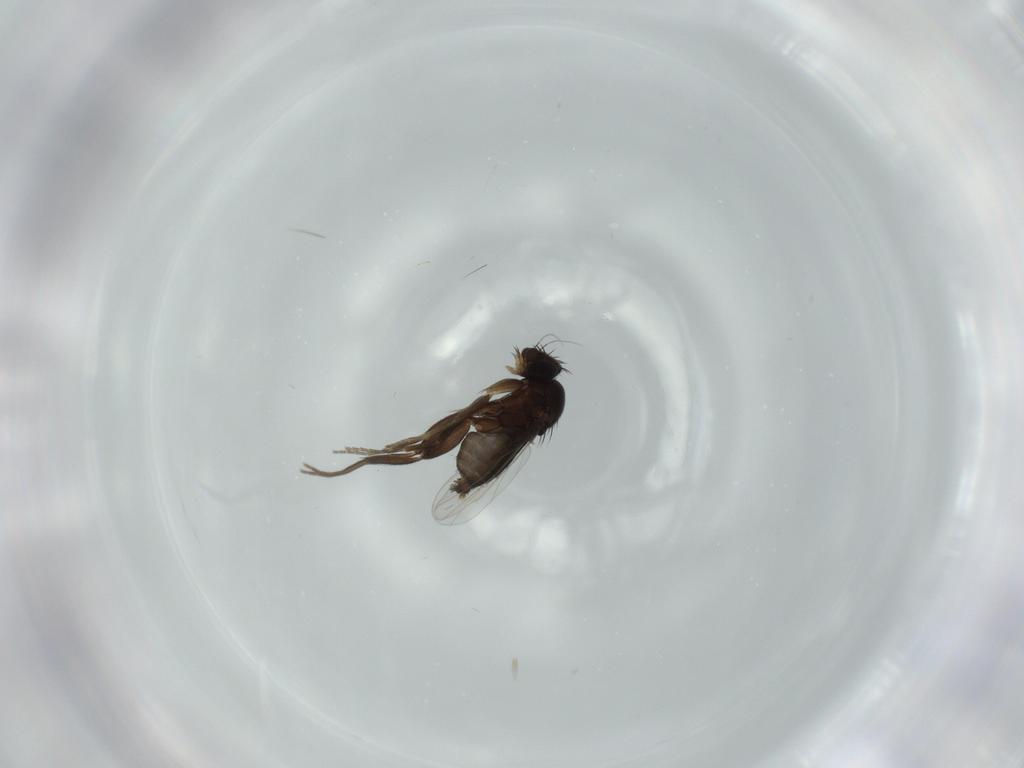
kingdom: Animalia
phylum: Arthropoda
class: Insecta
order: Diptera
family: Phoridae
